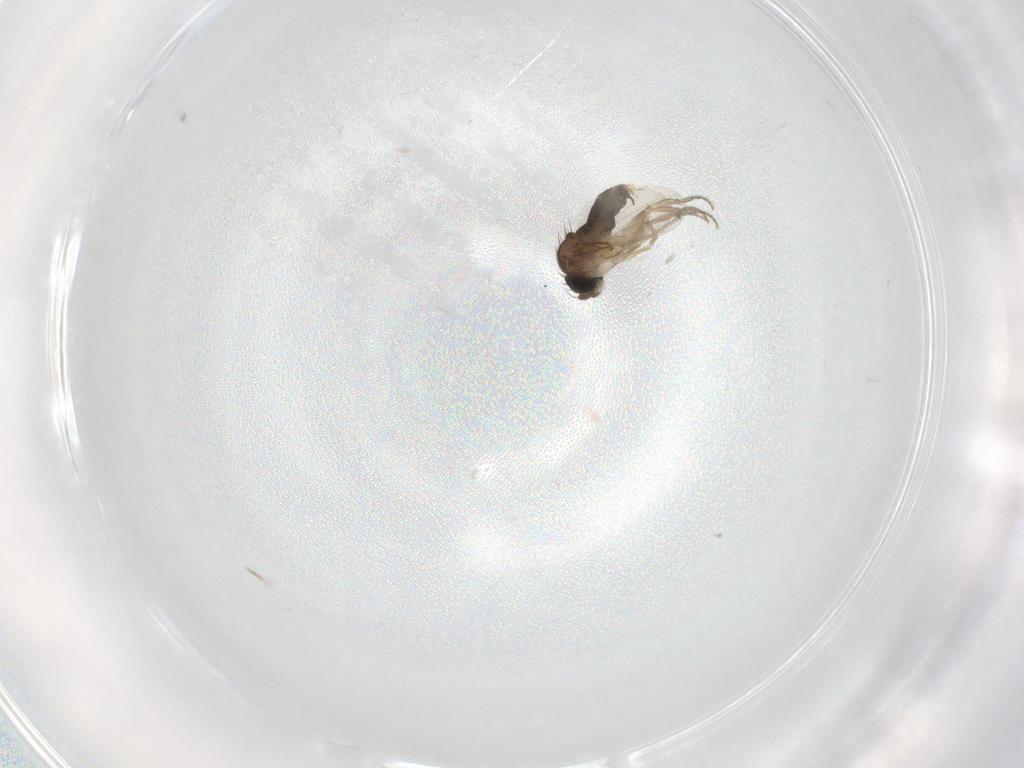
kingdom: Animalia
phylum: Arthropoda
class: Insecta
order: Diptera
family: Phoridae
